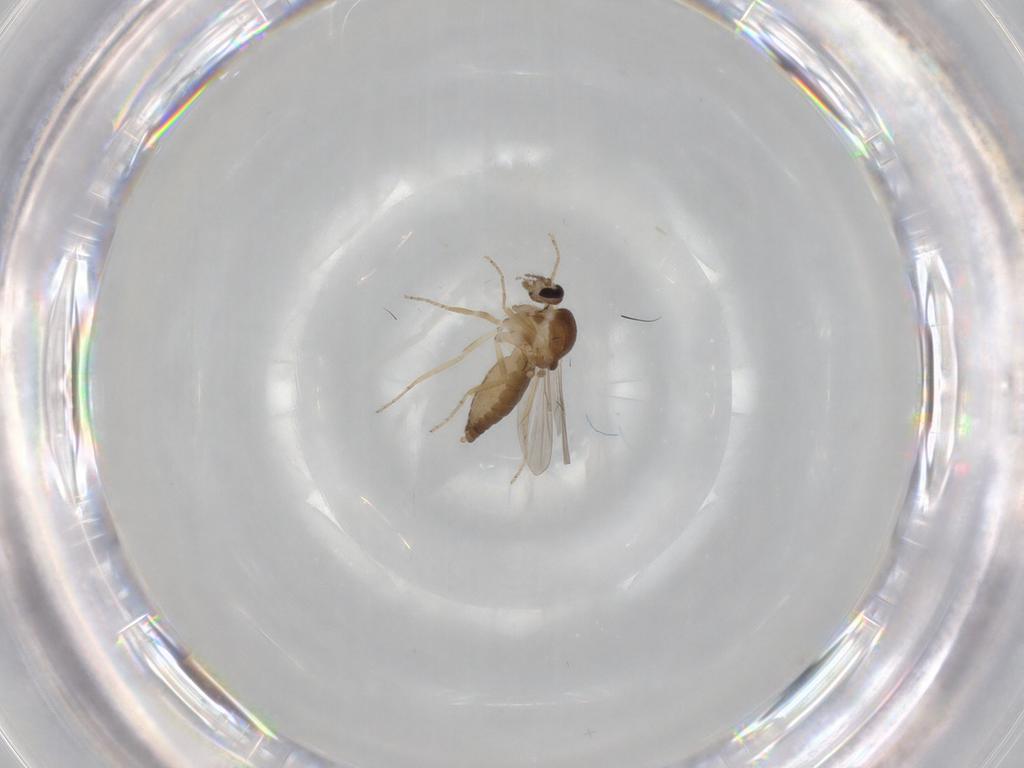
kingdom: Animalia
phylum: Arthropoda
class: Insecta
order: Diptera
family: Ceratopogonidae
